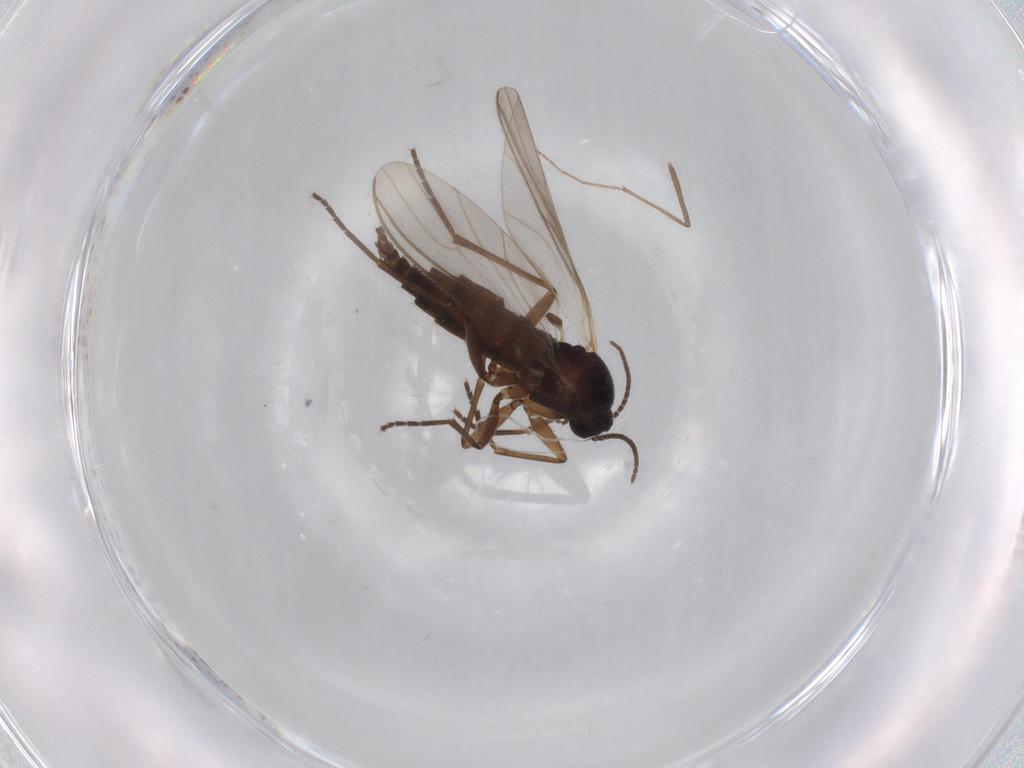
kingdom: Animalia
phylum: Arthropoda
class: Insecta
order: Diptera
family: Sciaridae
